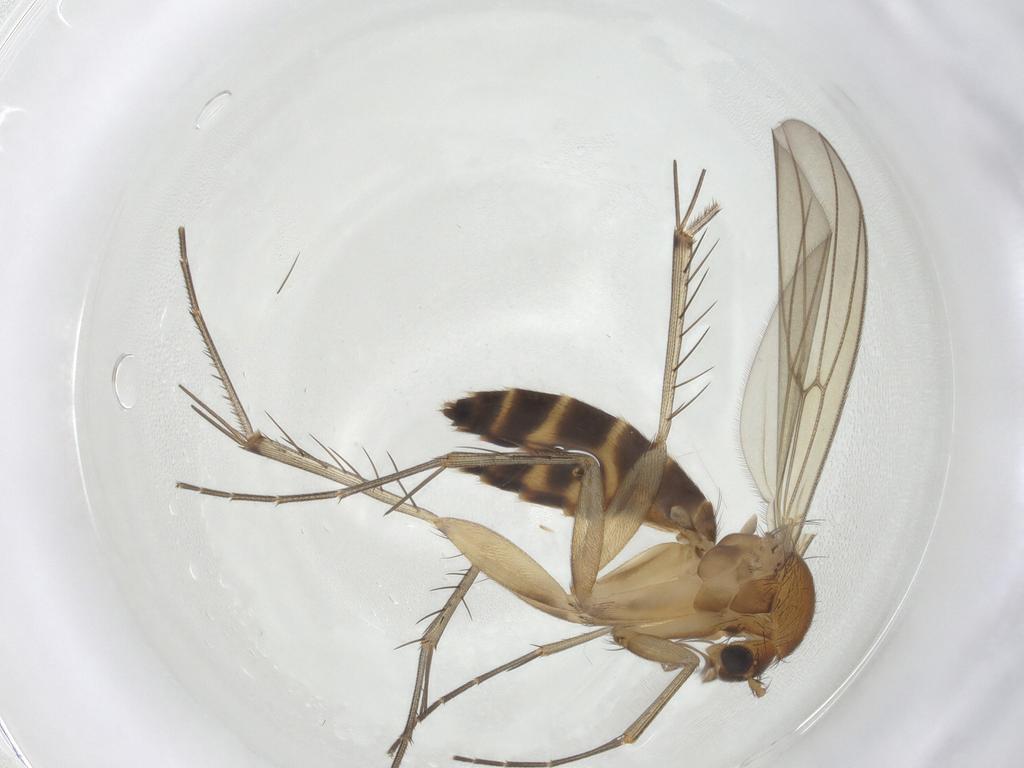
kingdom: Animalia
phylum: Arthropoda
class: Insecta
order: Diptera
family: Mycetophilidae
